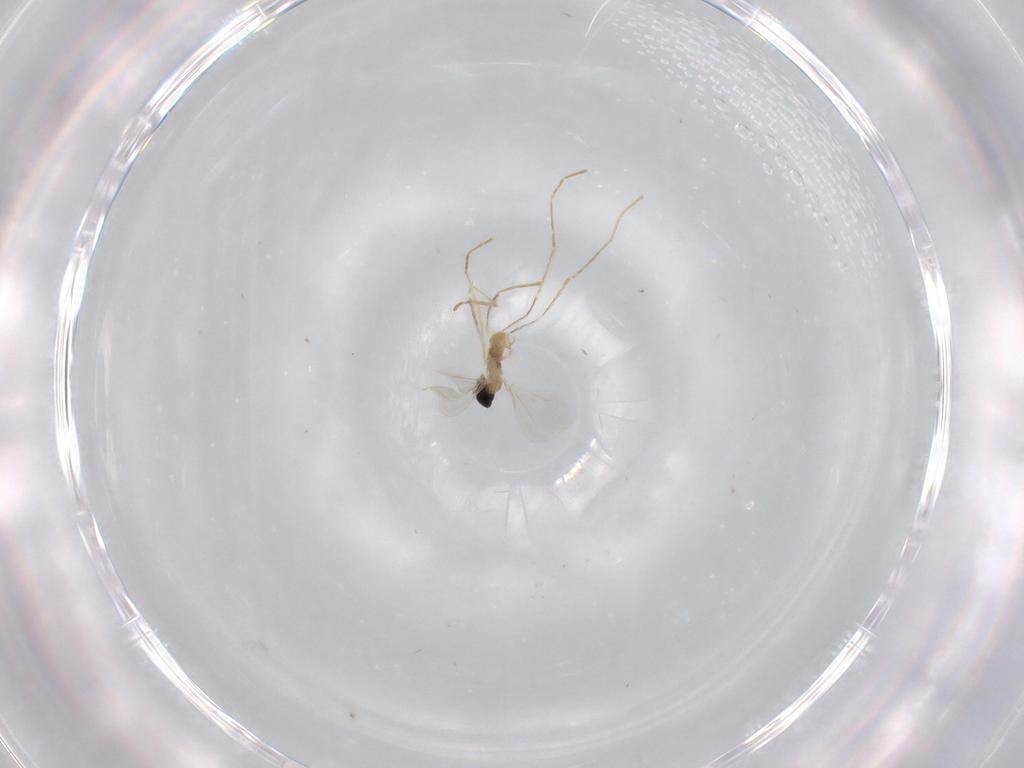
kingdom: Animalia
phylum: Arthropoda
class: Insecta
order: Diptera
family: Cecidomyiidae
